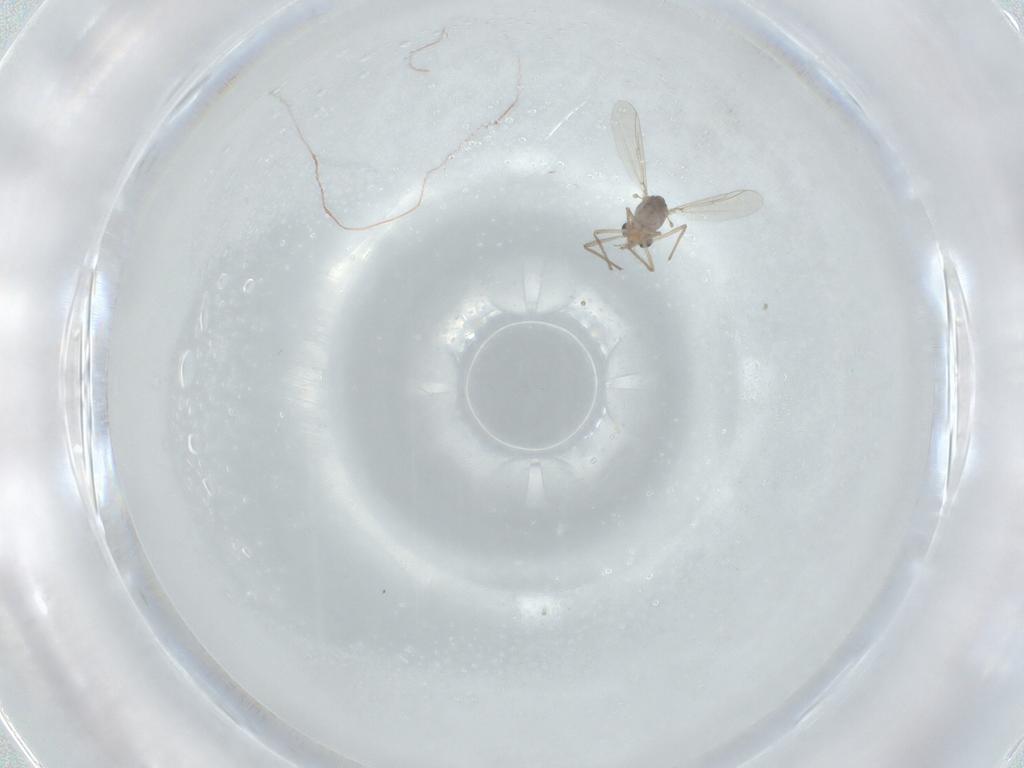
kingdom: Animalia
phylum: Arthropoda
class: Insecta
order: Diptera
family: Chironomidae
